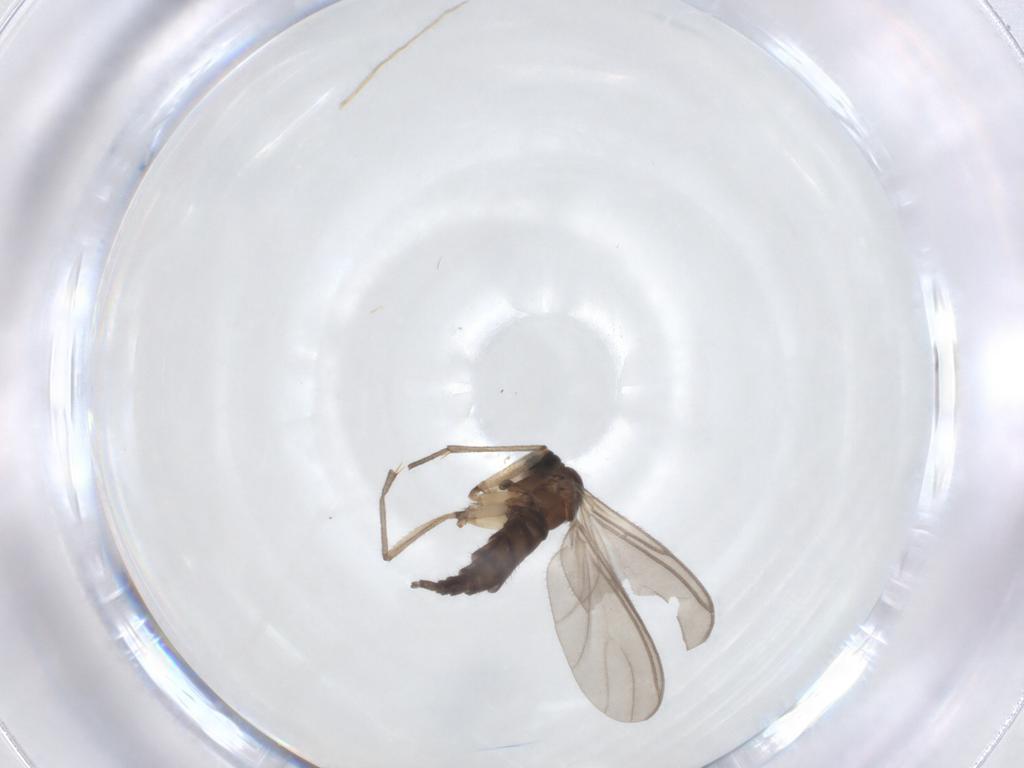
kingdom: Animalia
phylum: Arthropoda
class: Insecta
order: Diptera
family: Sciaridae
